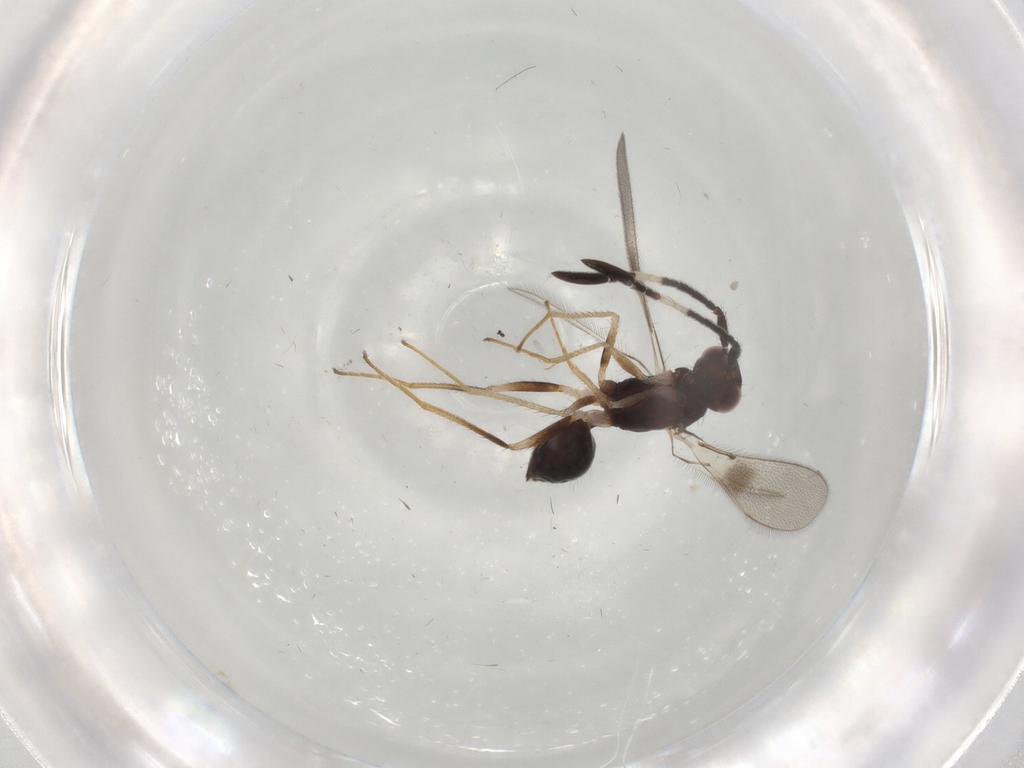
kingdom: Animalia
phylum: Arthropoda
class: Insecta
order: Hymenoptera
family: Mymaridae
